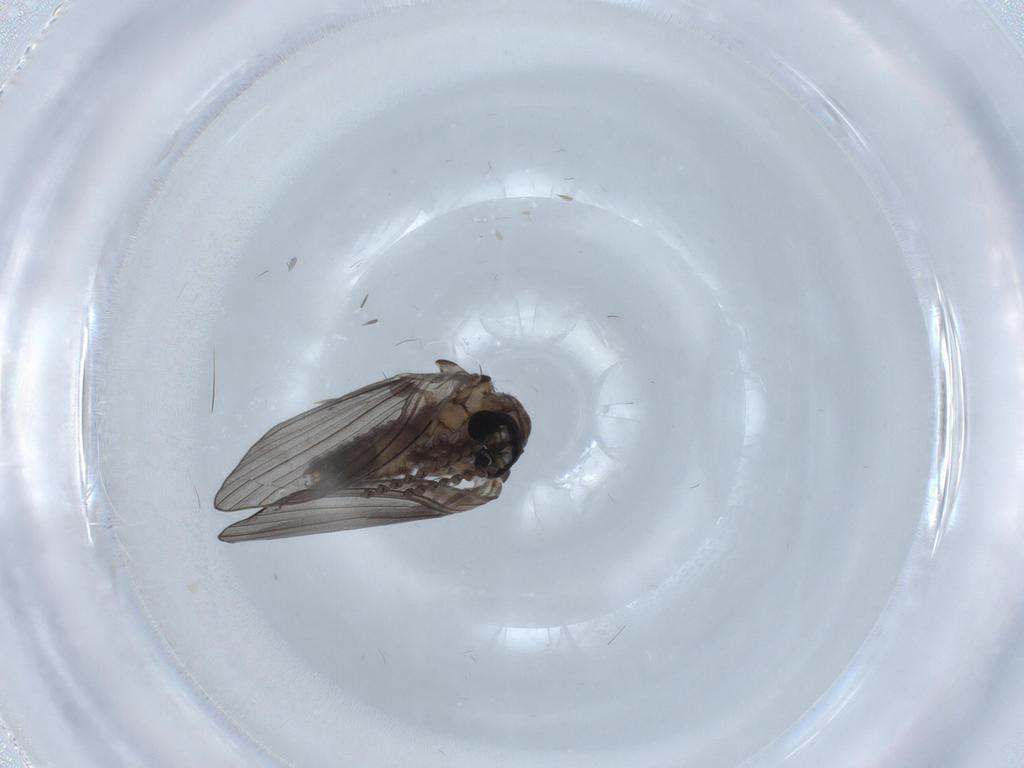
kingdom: Animalia
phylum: Arthropoda
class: Insecta
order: Diptera
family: Psychodidae
